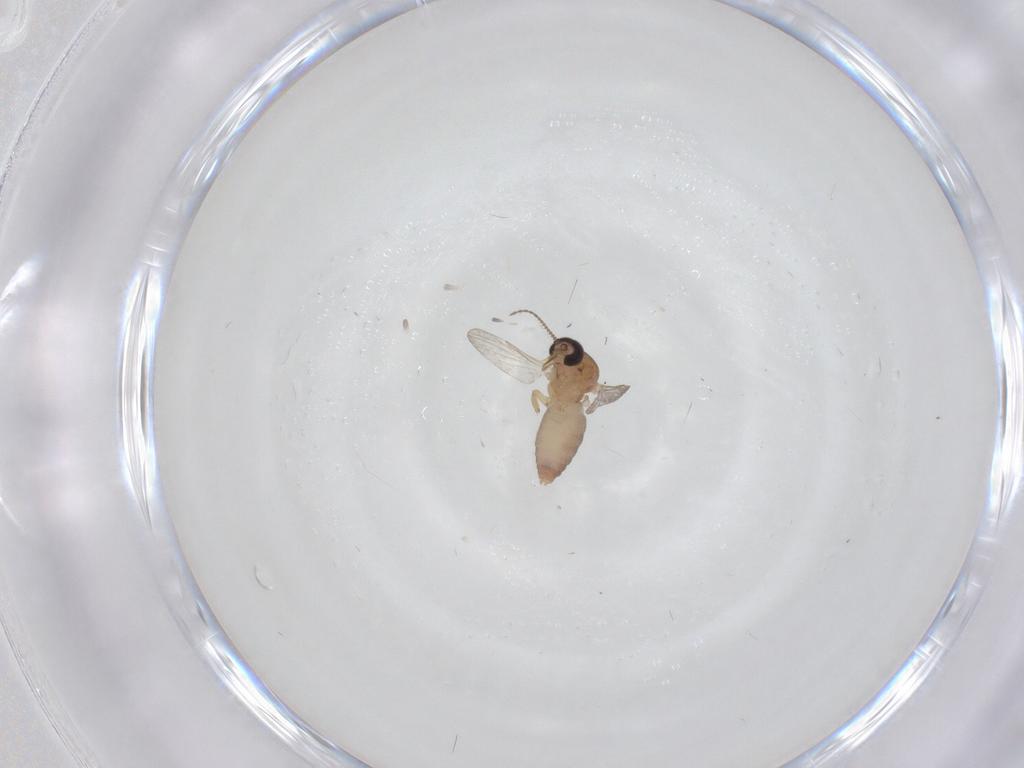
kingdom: Animalia
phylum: Arthropoda
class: Insecta
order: Diptera
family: Ceratopogonidae
